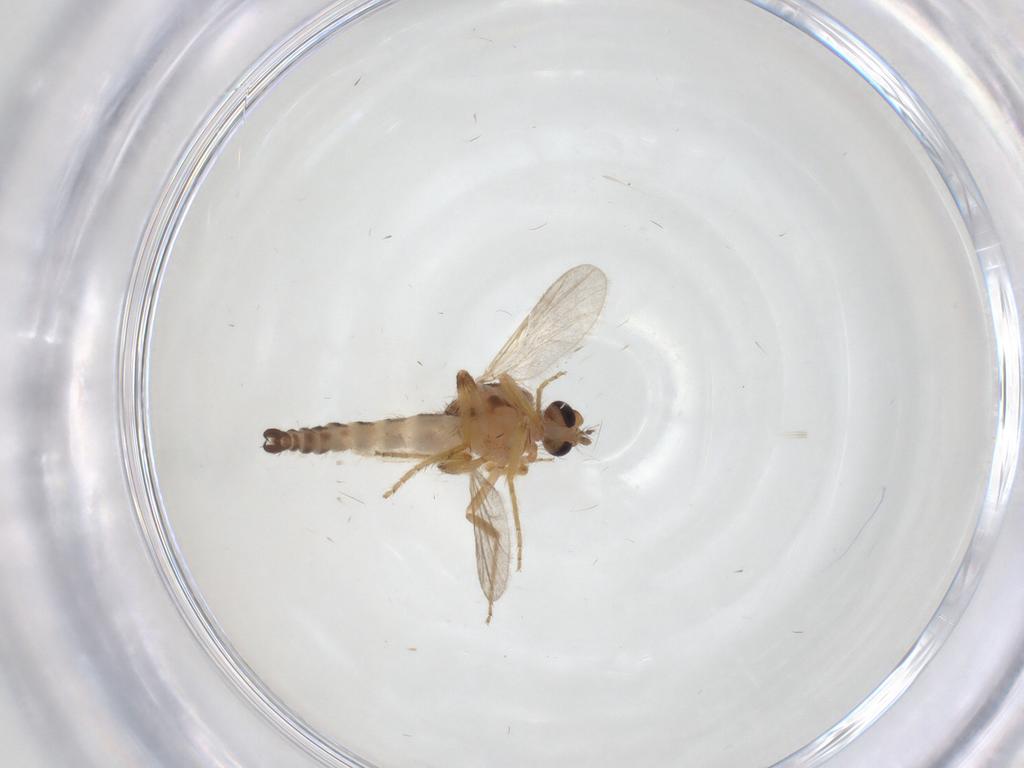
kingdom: Animalia
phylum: Arthropoda
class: Insecta
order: Diptera
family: Ceratopogonidae
